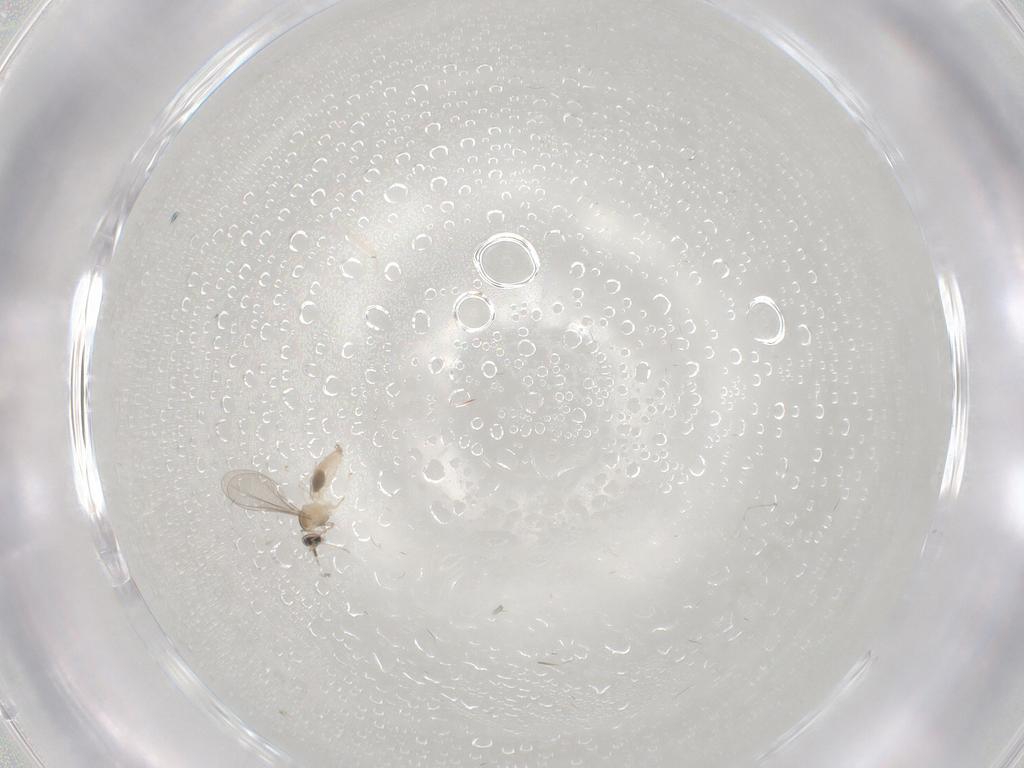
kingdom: Animalia
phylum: Arthropoda
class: Insecta
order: Diptera
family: Cecidomyiidae
